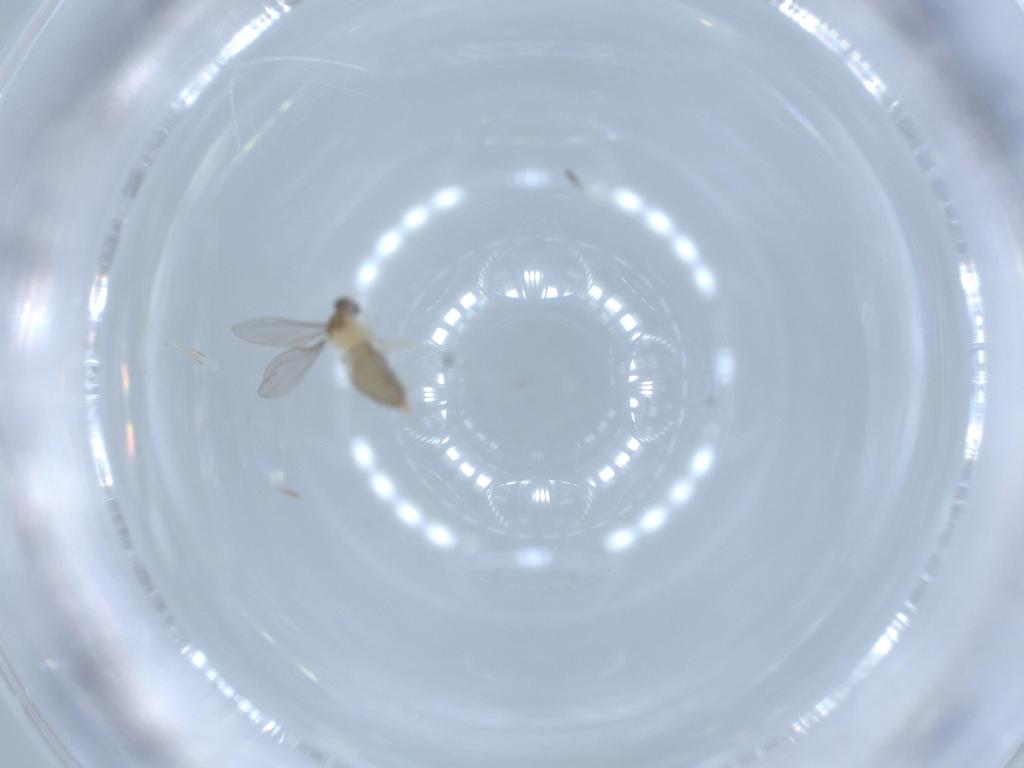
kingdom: Animalia
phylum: Arthropoda
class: Insecta
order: Diptera
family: Cecidomyiidae
